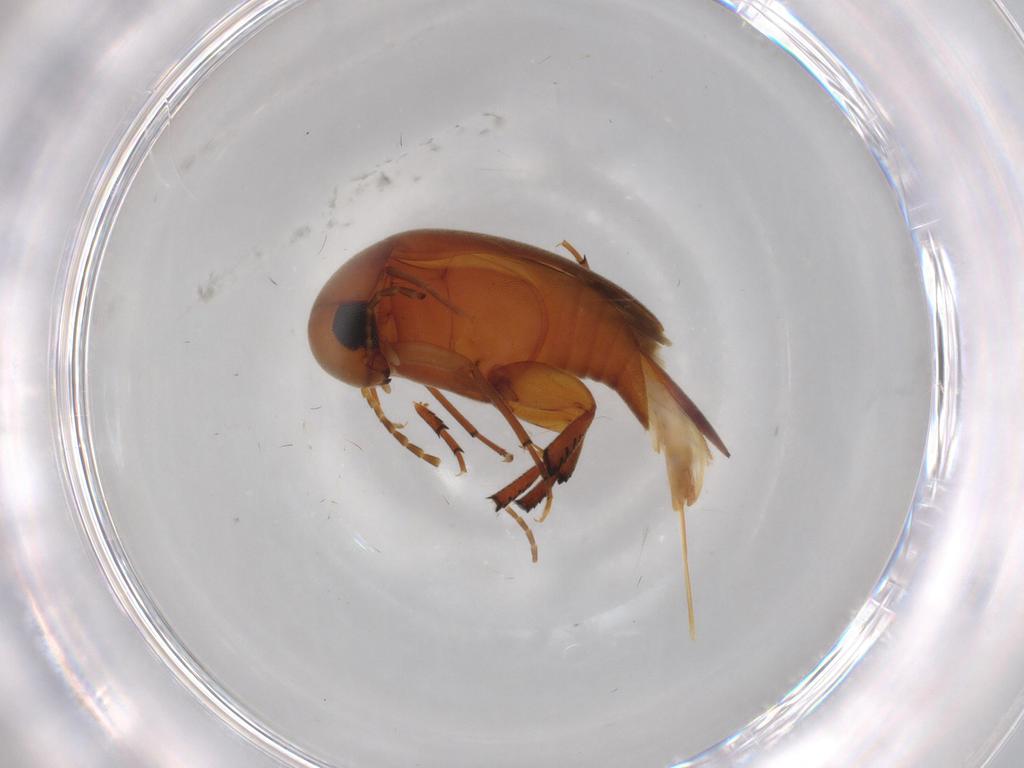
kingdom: Animalia
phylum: Arthropoda
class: Insecta
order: Coleoptera
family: Mordellidae
